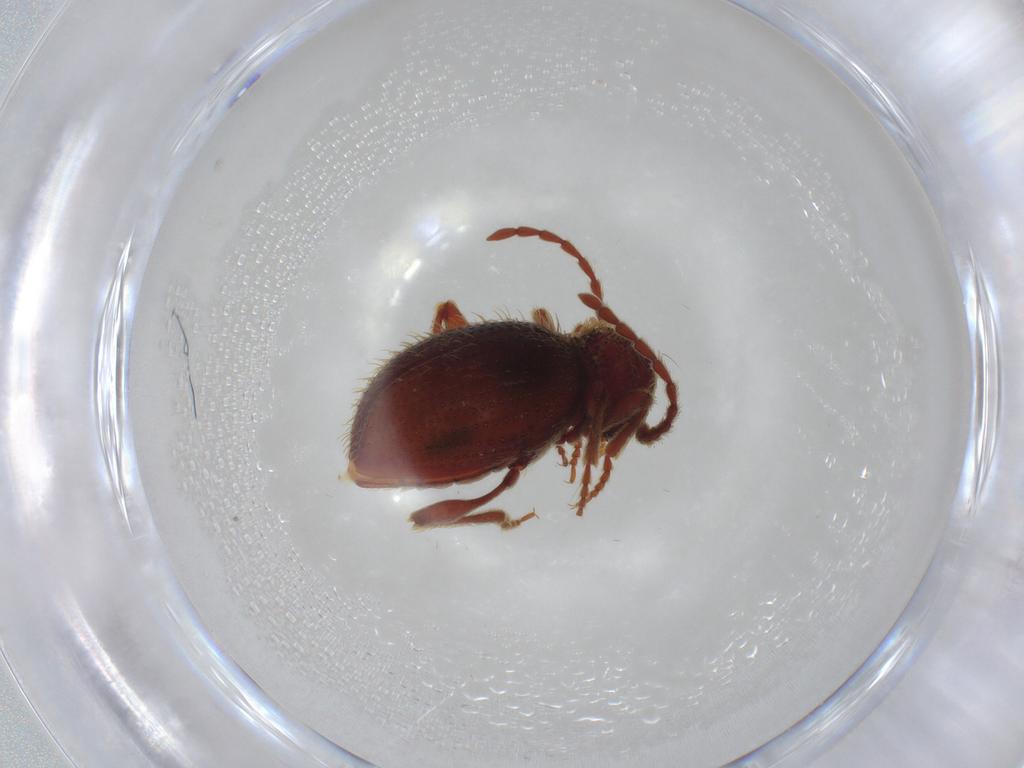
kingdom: Animalia
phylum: Arthropoda
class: Insecta
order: Coleoptera
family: Staphylinidae
